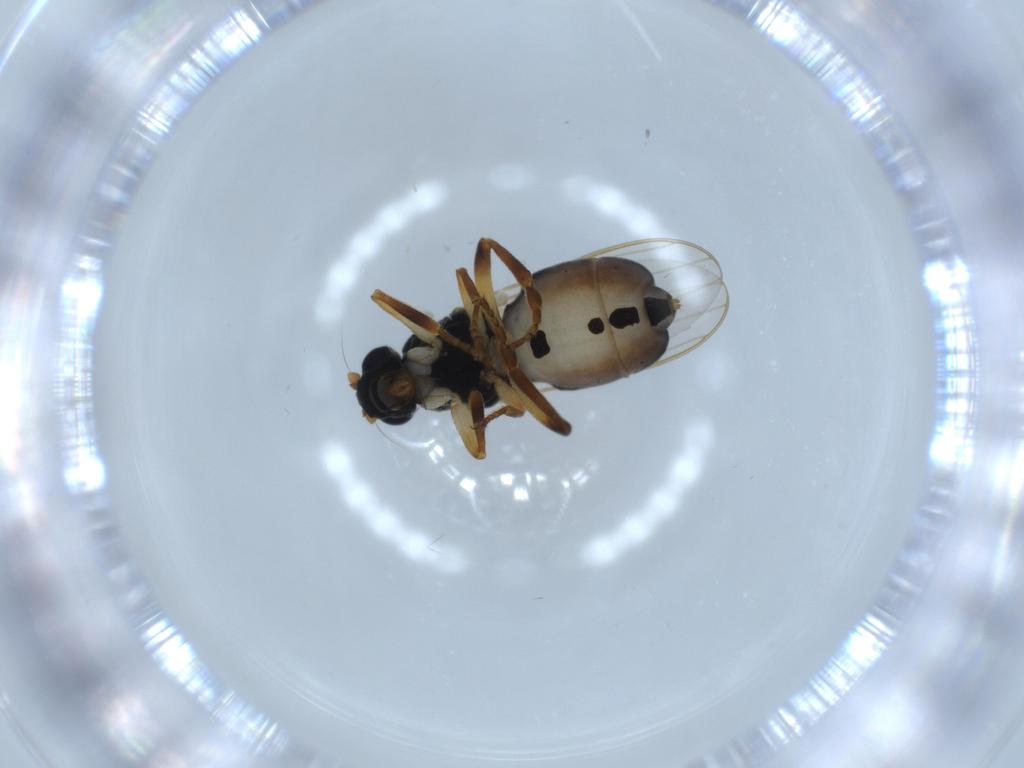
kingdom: Animalia
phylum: Arthropoda
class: Insecta
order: Diptera
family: Sphaeroceridae
